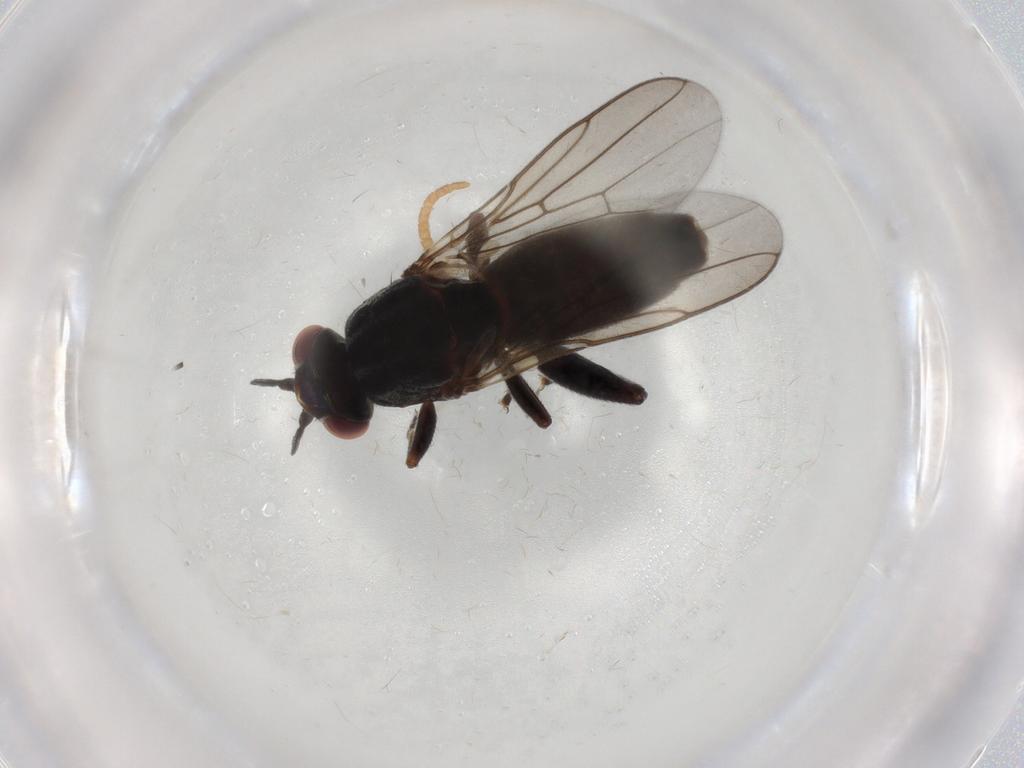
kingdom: Animalia
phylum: Arthropoda
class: Insecta
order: Diptera
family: Chloropidae
